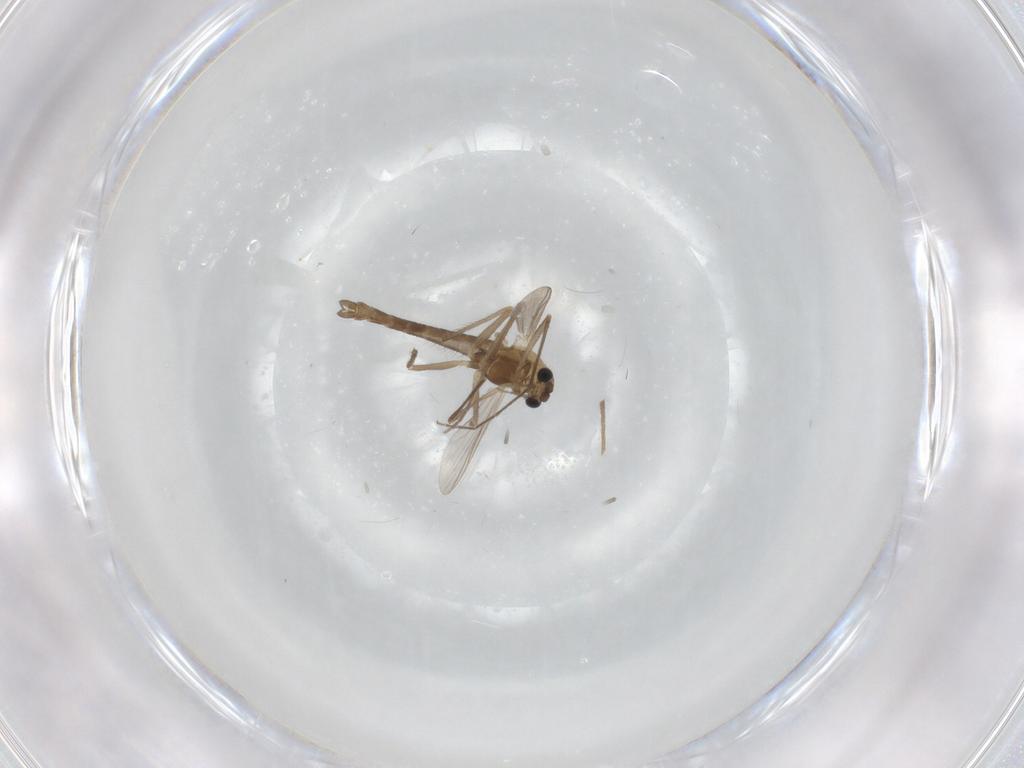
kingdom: Animalia
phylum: Arthropoda
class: Insecta
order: Diptera
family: Chironomidae
